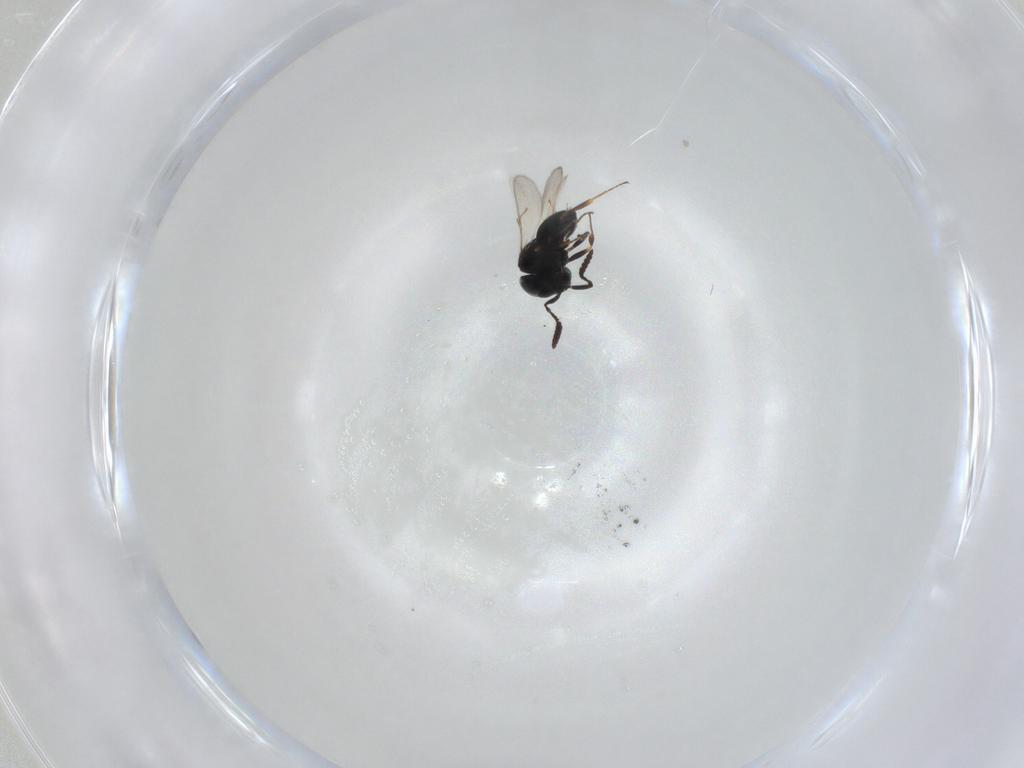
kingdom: Animalia
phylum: Arthropoda
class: Insecta
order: Hymenoptera
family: Scelionidae
